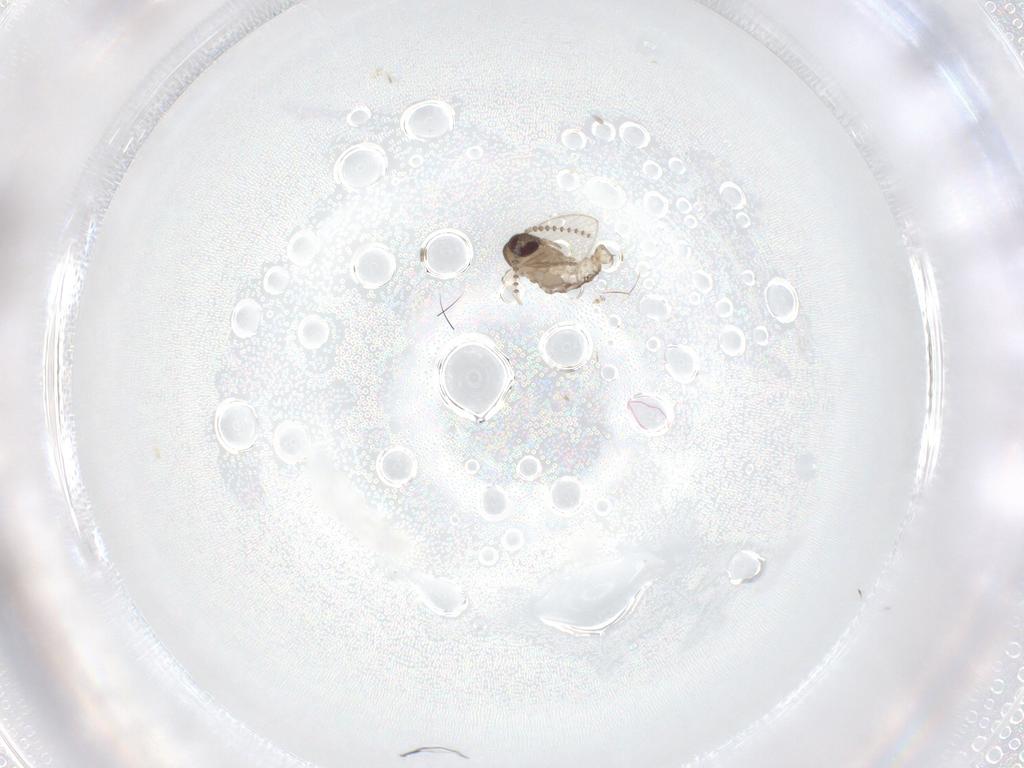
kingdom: Animalia
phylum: Arthropoda
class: Insecta
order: Diptera
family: Psychodidae
